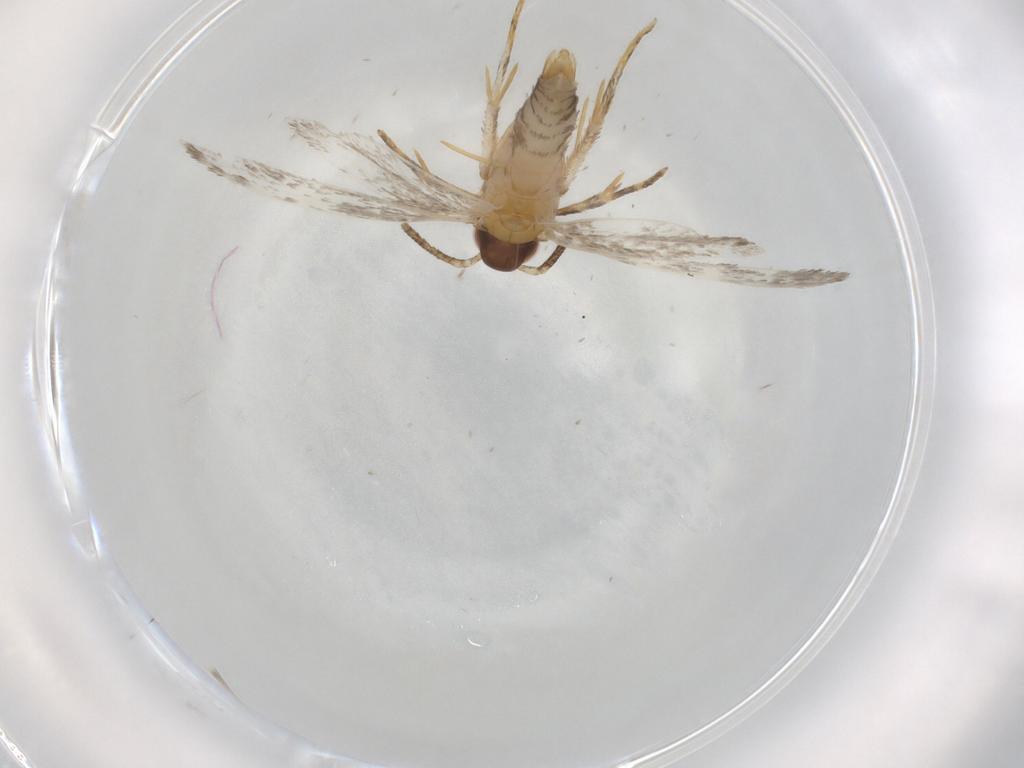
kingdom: Animalia
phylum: Arthropoda
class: Insecta
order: Lepidoptera
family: Autostichidae
